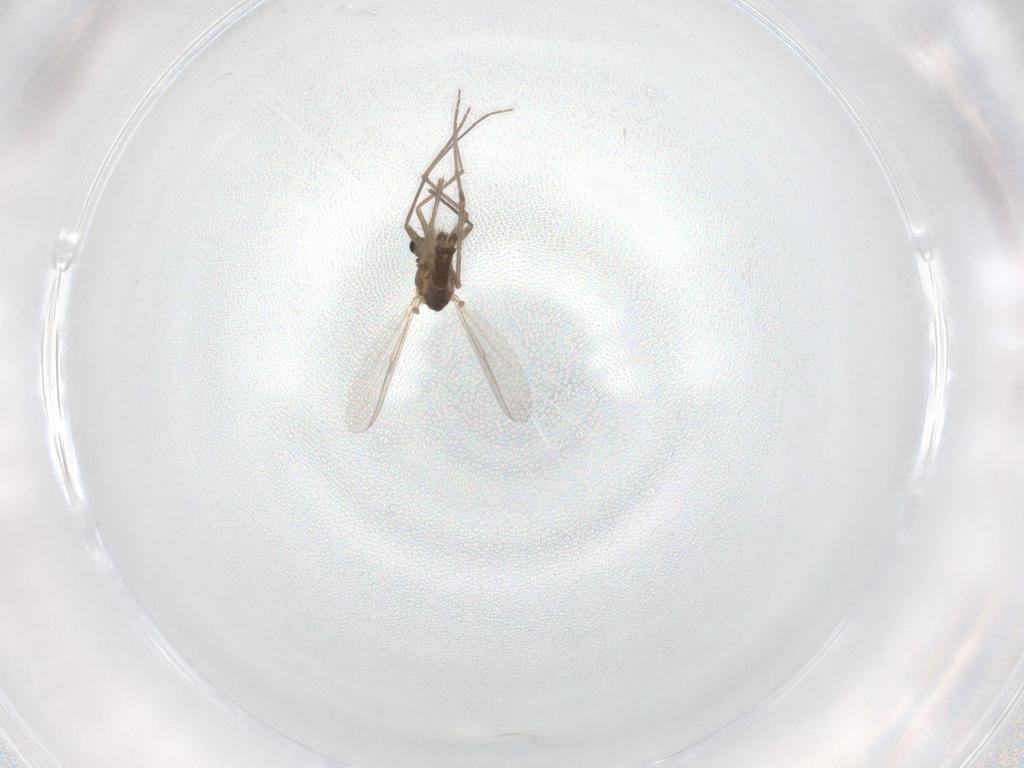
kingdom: Animalia
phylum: Arthropoda
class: Insecta
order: Diptera
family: Chironomidae
